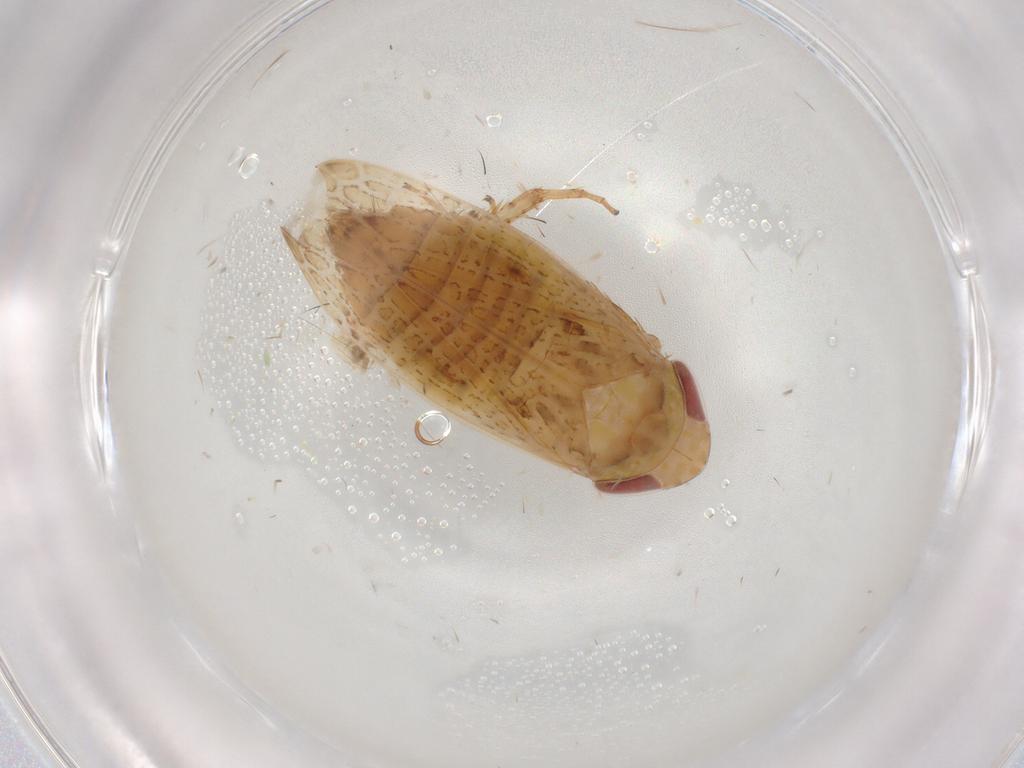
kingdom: Animalia
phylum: Arthropoda
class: Insecta
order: Hemiptera
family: Cicadellidae
